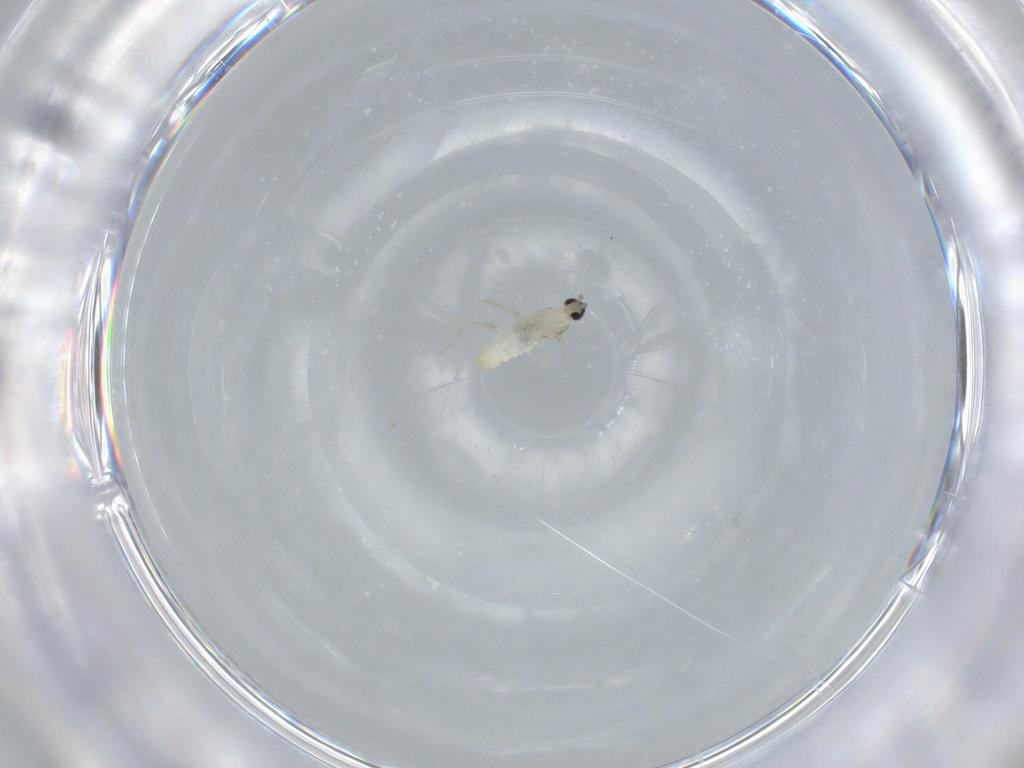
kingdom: Animalia
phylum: Arthropoda
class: Insecta
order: Diptera
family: Cecidomyiidae
